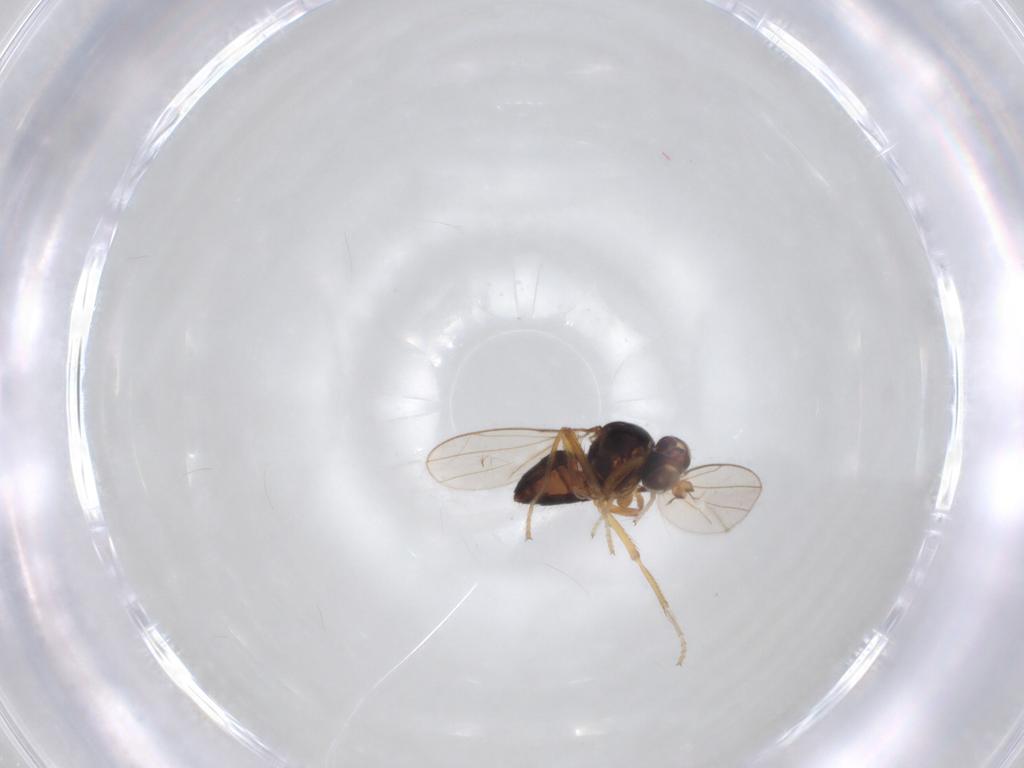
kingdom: Animalia
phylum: Arthropoda
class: Insecta
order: Diptera
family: Ephydridae
